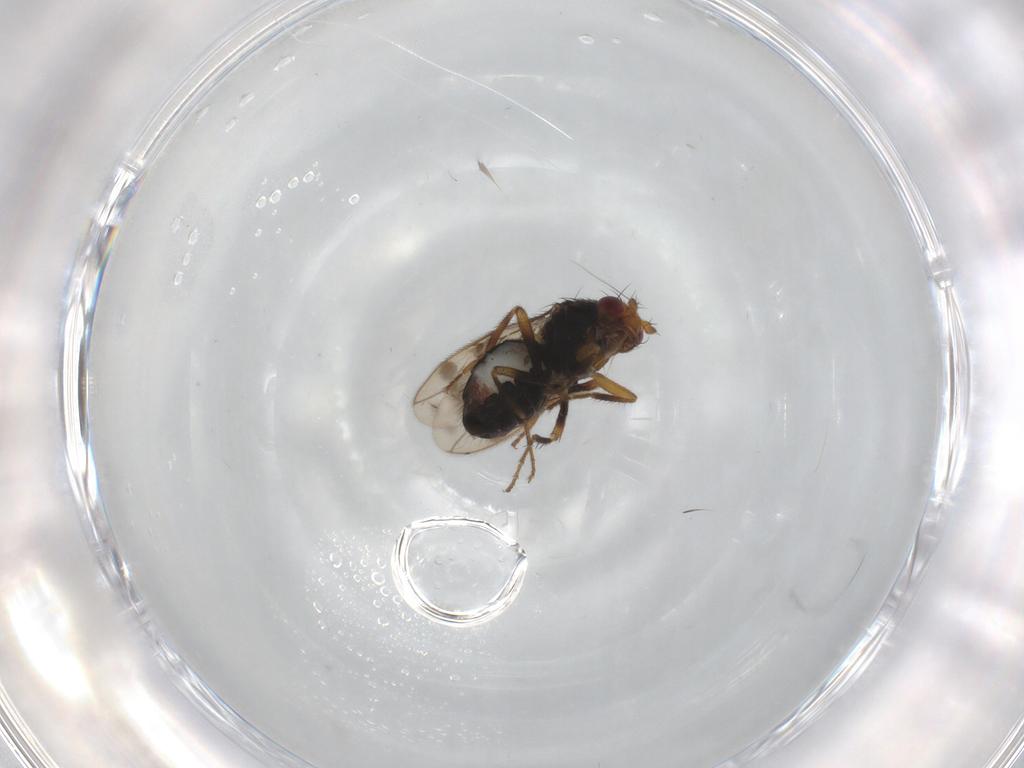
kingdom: Animalia
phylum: Arthropoda
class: Insecta
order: Diptera
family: Sphaeroceridae
